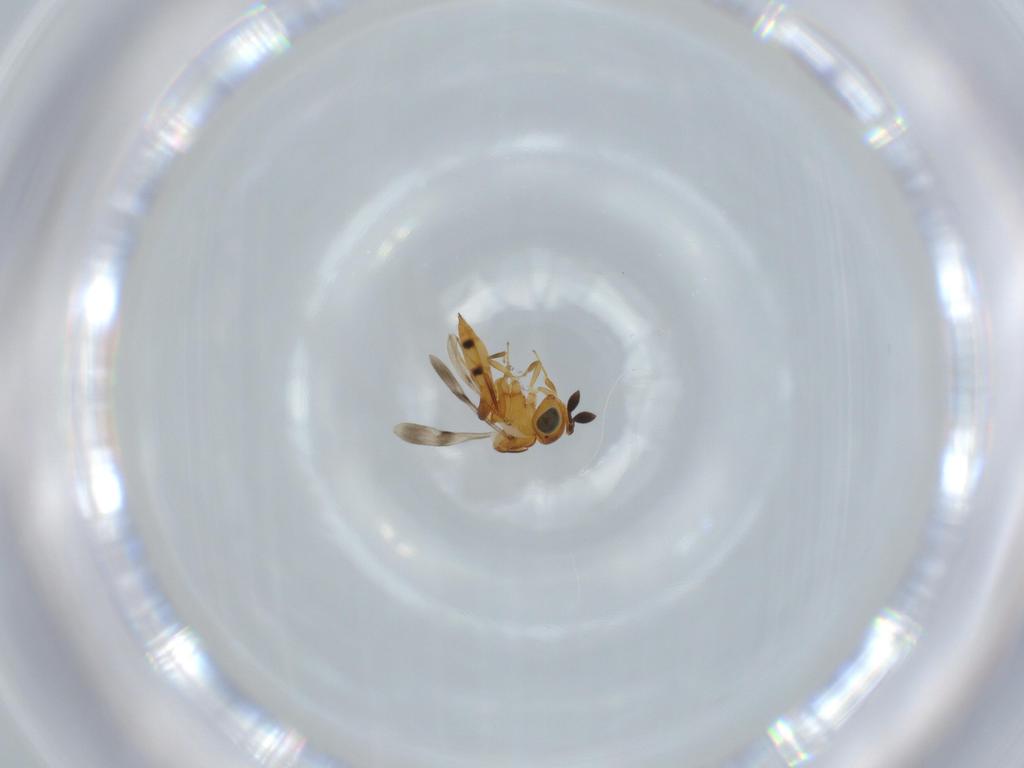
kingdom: Animalia
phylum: Arthropoda
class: Insecta
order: Hymenoptera
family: Scelionidae
